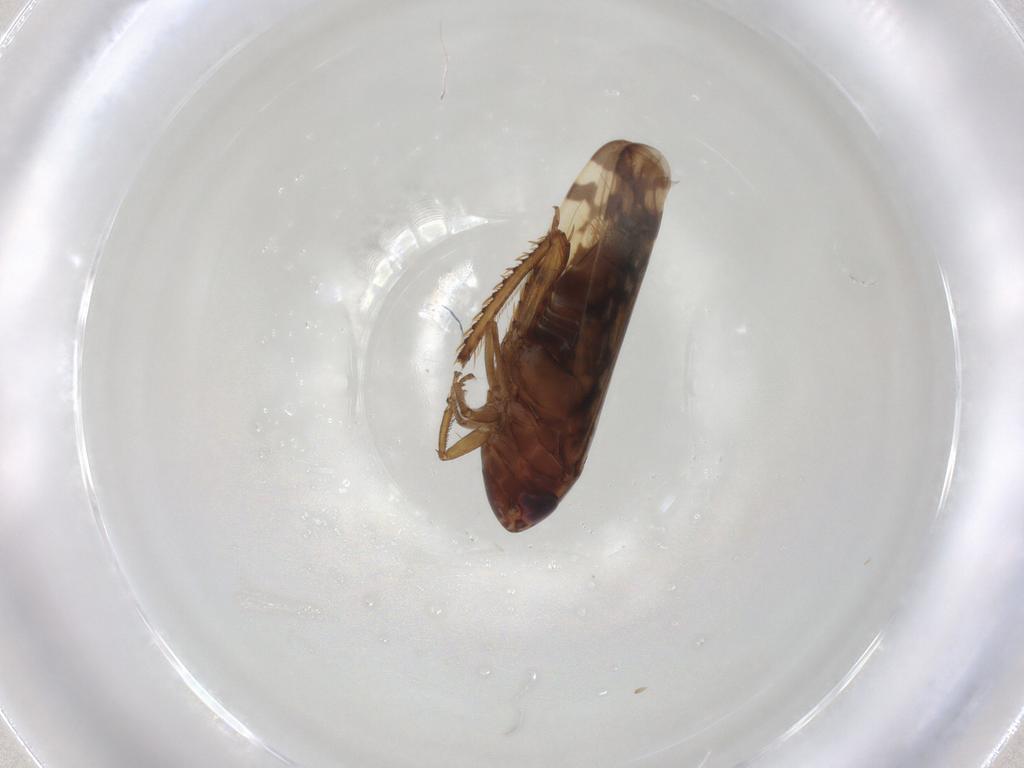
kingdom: Animalia
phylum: Arthropoda
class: Insecta
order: Hemiptera
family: Cicadellidae
